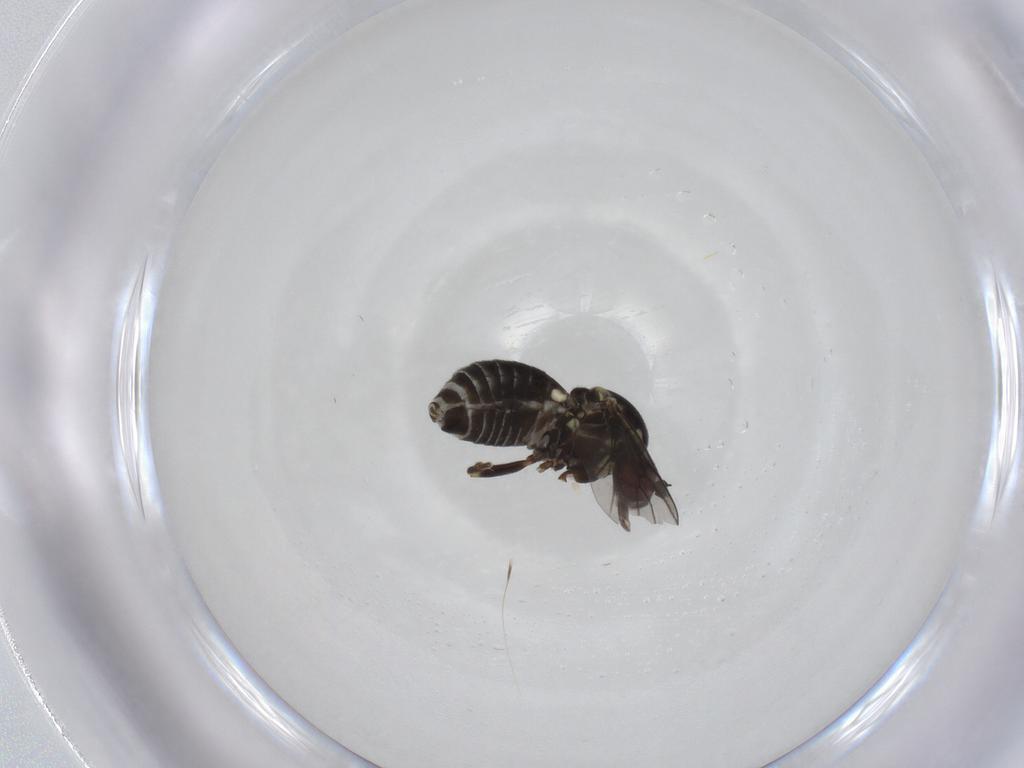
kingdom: Animalia
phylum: Arthropoda
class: Insecta
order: Diptera
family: Bombyliidae
